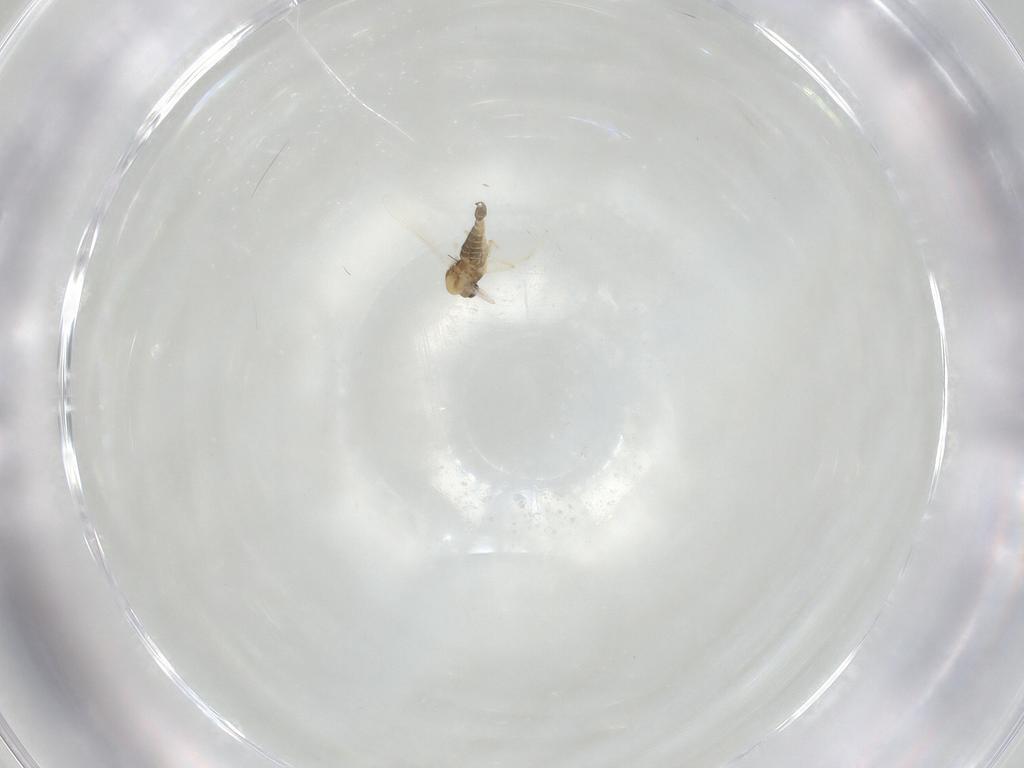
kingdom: Animalia
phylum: Arthropoda
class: Insecta
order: Diptera
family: Chironomidae
